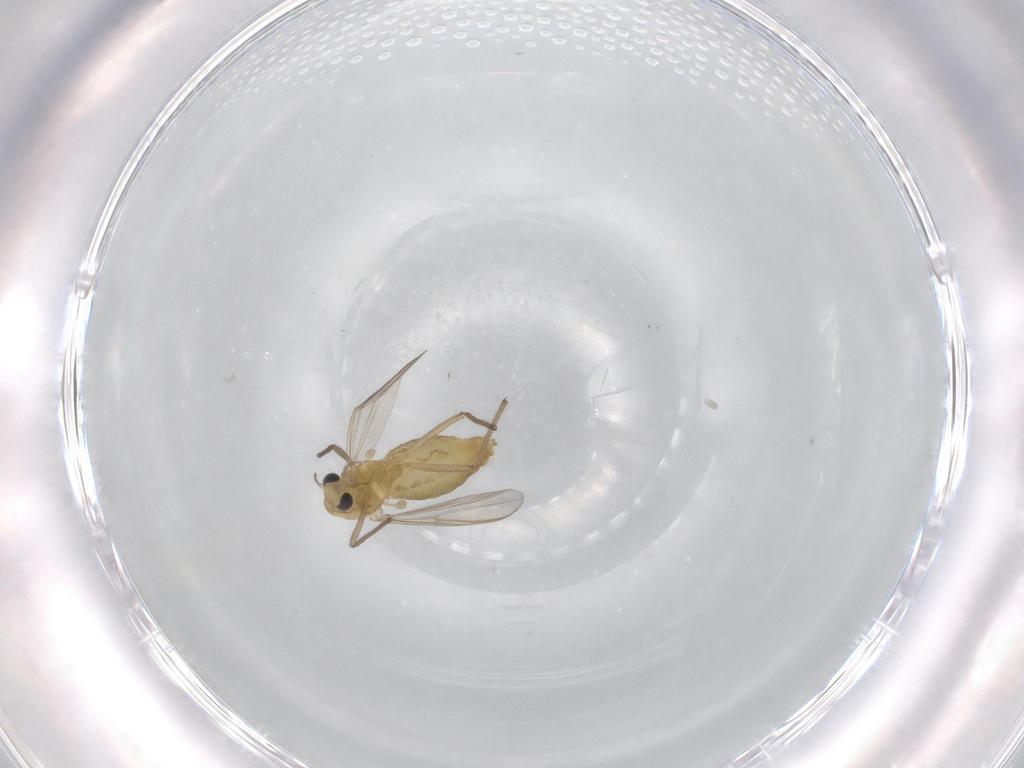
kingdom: Animalia
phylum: Arthropoda
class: Insecta
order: Diptera
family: Chironomidae
